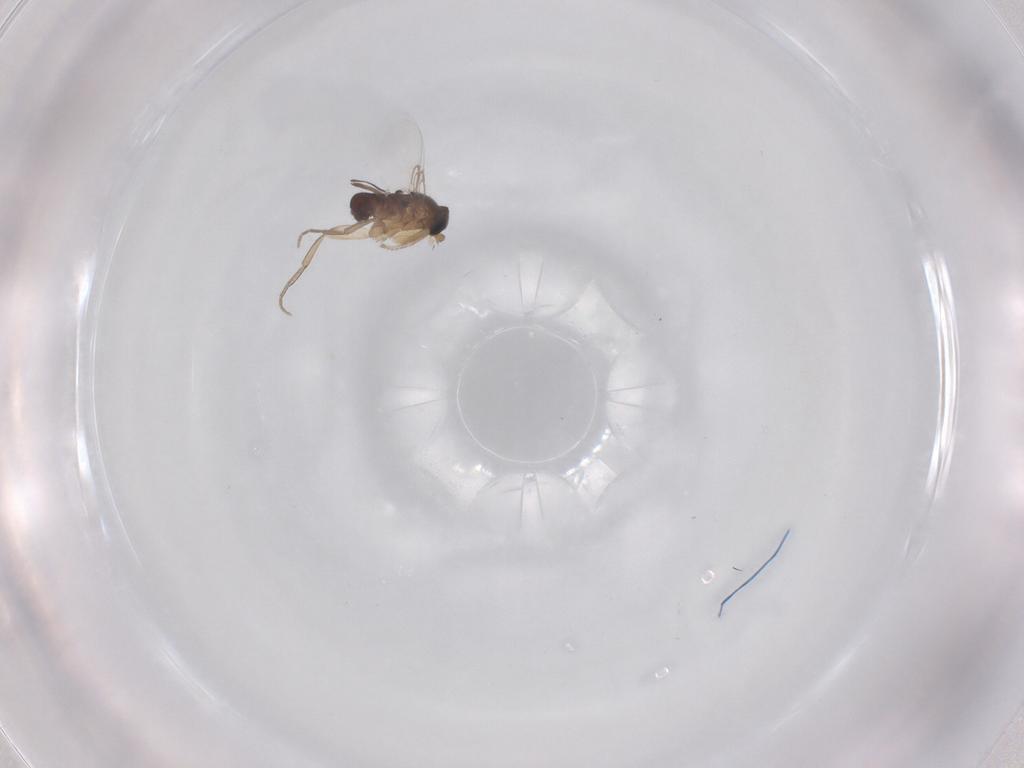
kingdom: Animalia
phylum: Arthropoda
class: Insecta
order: Diptera
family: Phoridae
